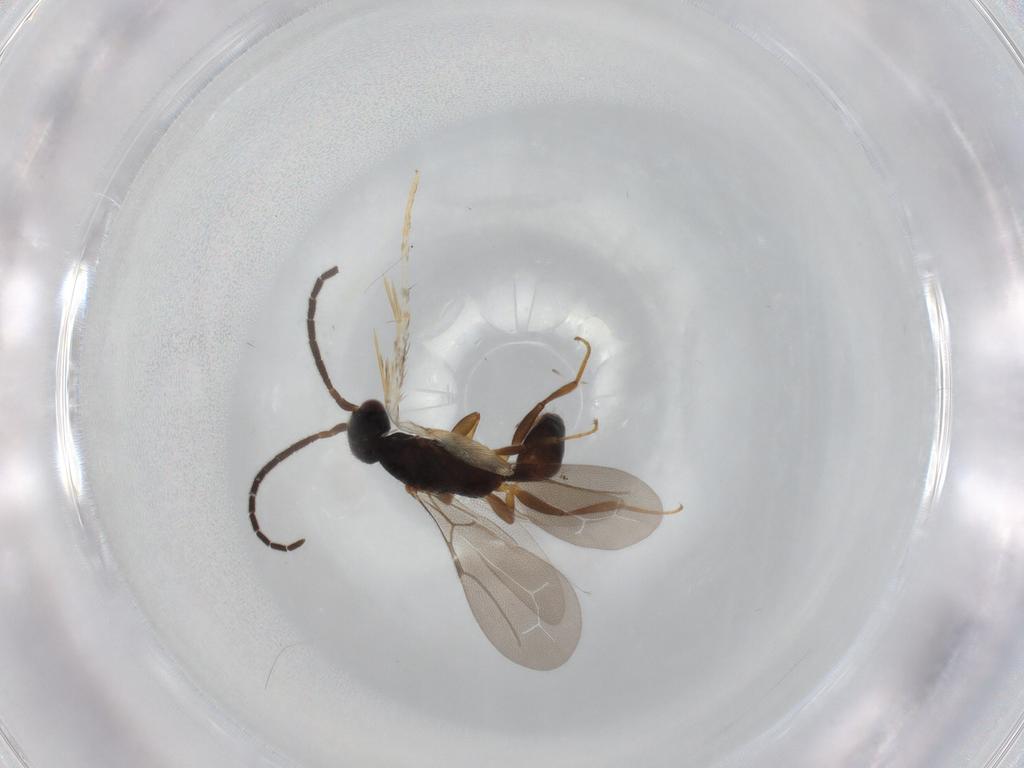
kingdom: Animalia
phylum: Arthropoda
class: Insecta
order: Hymenoptera
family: Bethylidae
